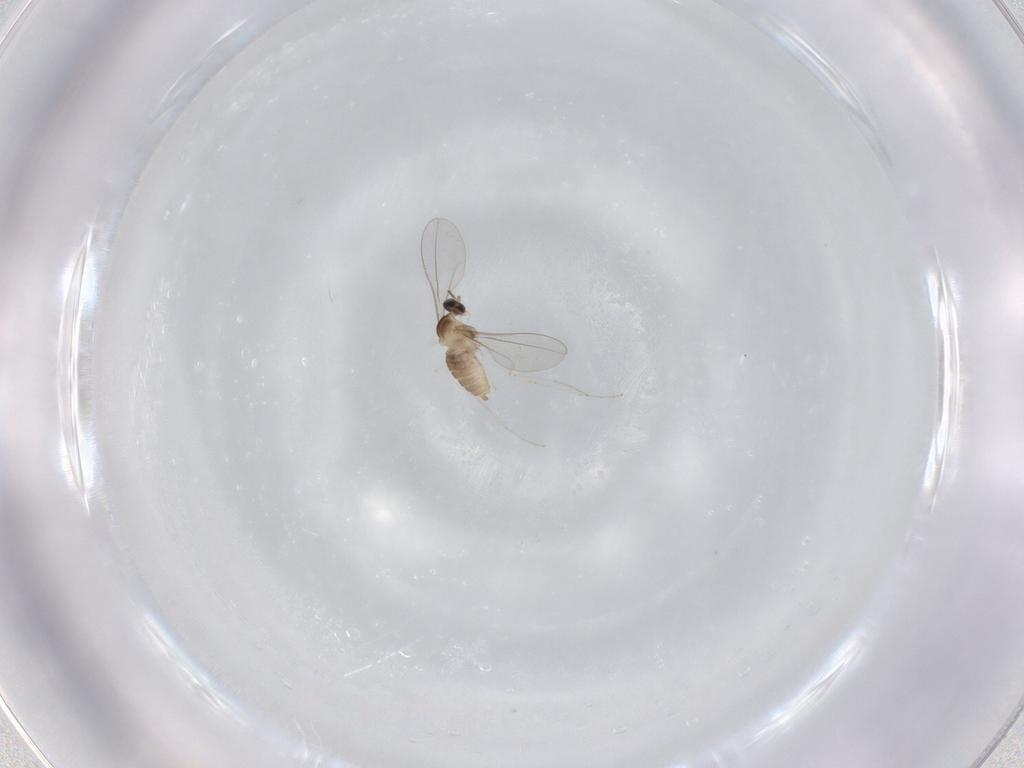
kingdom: Animalia
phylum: Arthropoda
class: Insecta
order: Diptera
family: Cecidomyiidae
